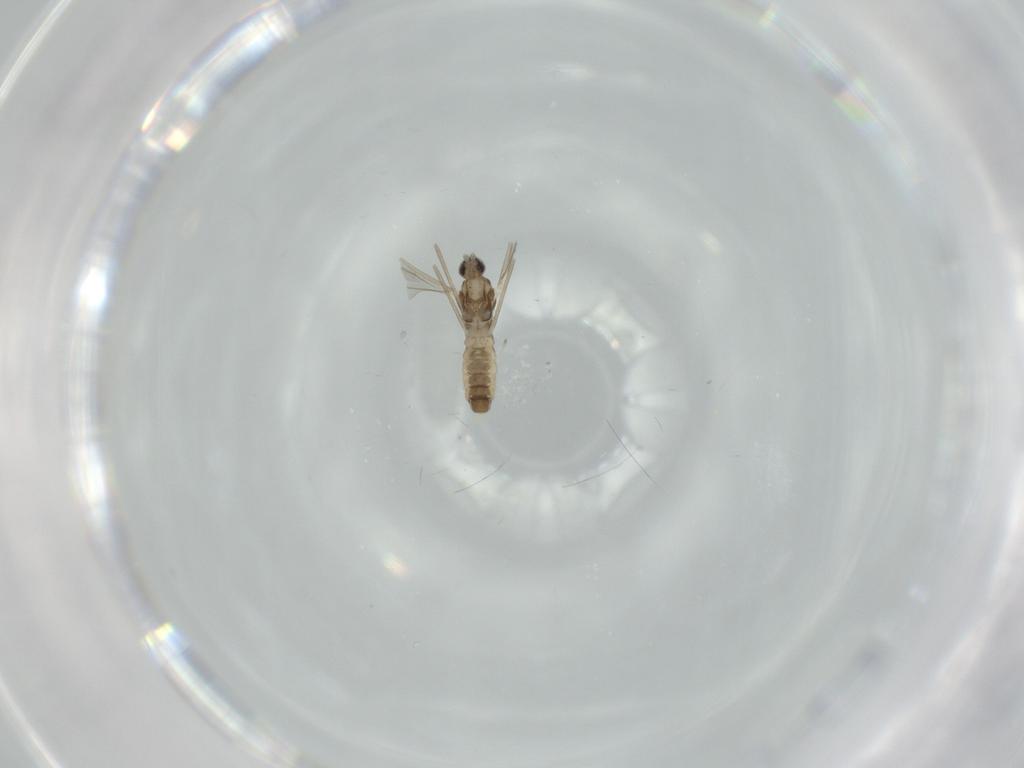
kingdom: Animalia
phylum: Arthropoda
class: Insecta
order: Diptera
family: Cecidomyiidae
